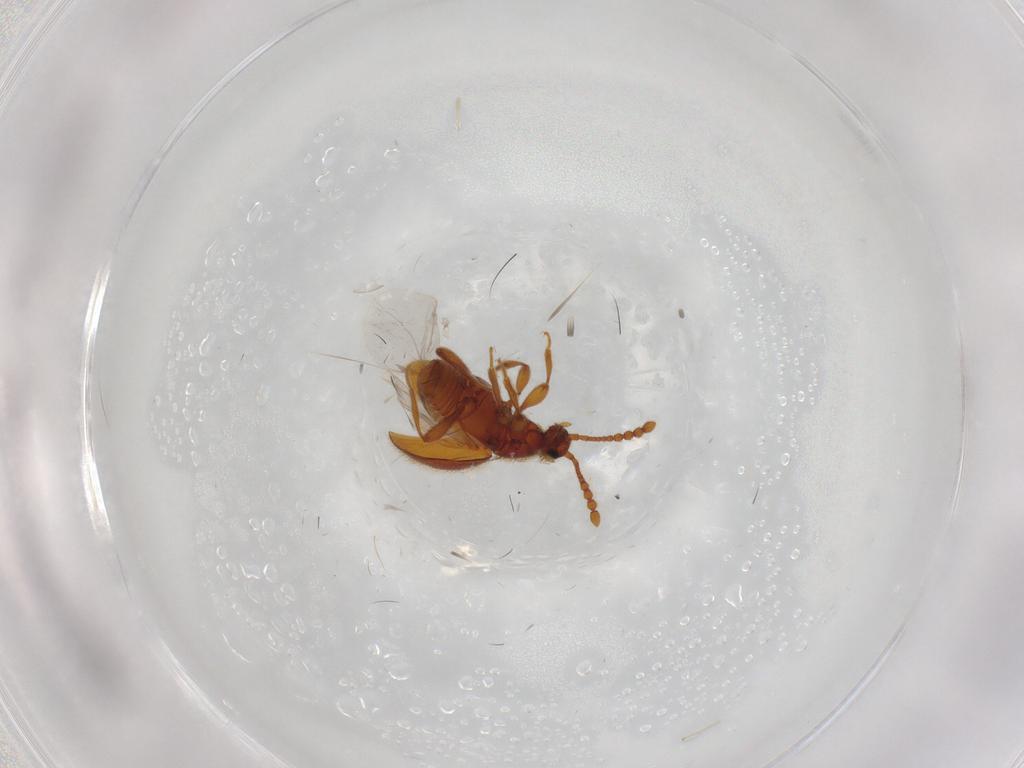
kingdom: Animalia
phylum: Arthropoda
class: Insecta
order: Coleoptera
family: Staphylinidae
